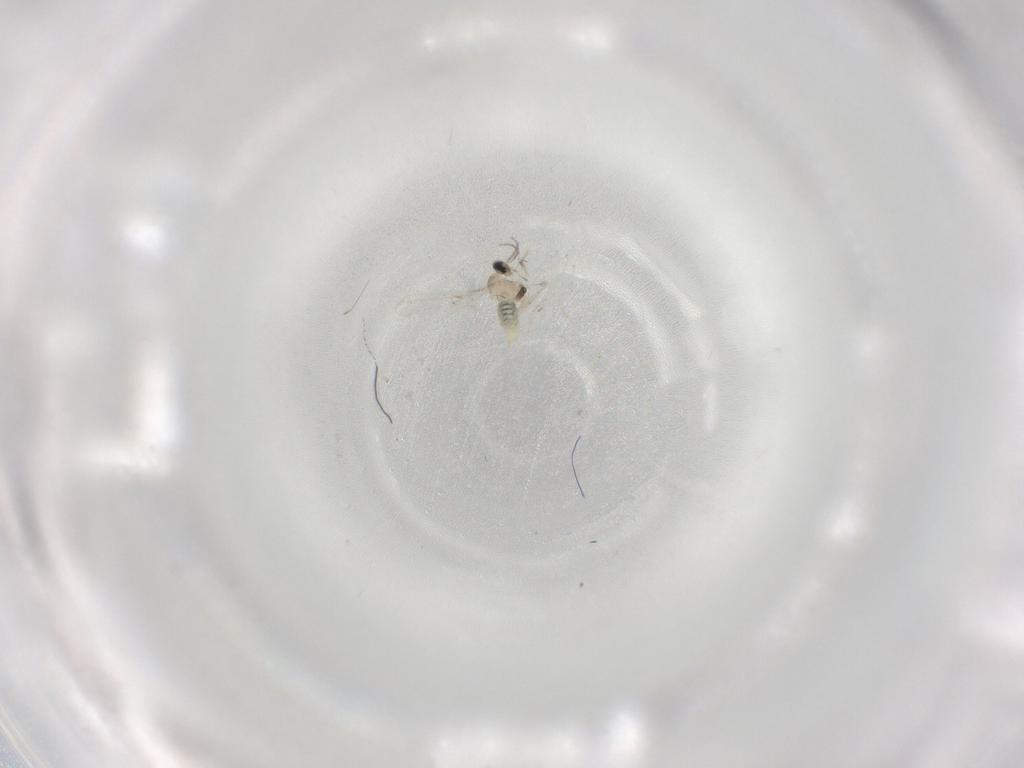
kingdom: Animalia
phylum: Arthropoda
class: Insecta
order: Diptera
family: Cecidomyiidae
